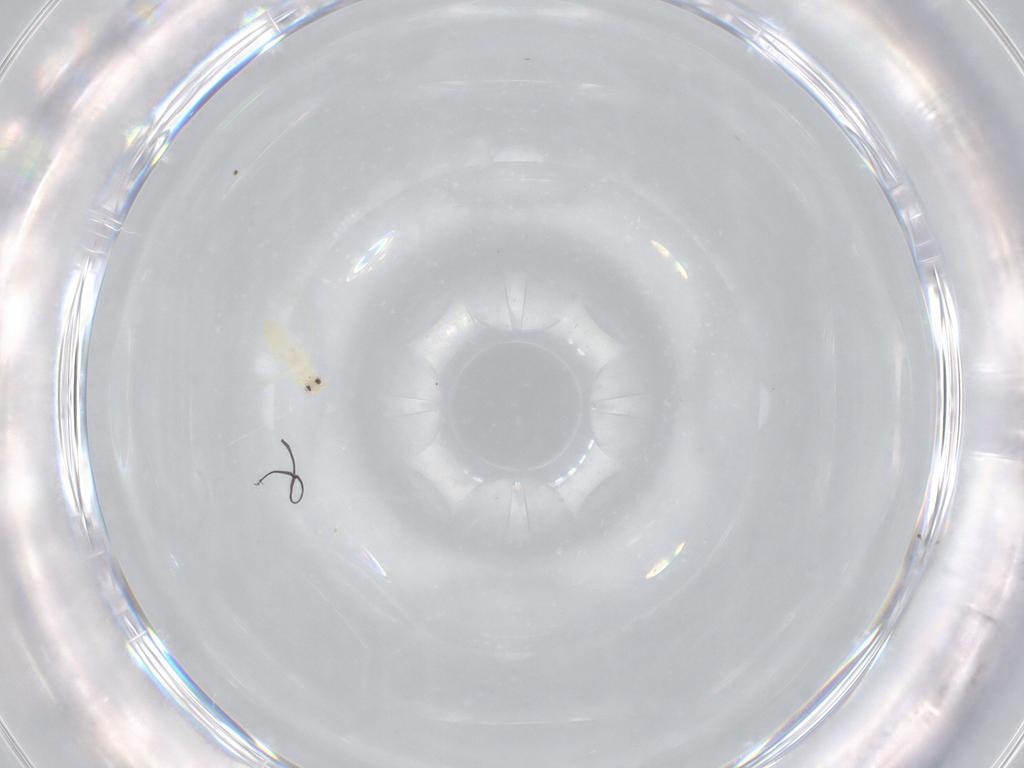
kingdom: Animalia
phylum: Arthropoda
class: Insecta
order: Hemiptera
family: Aleyrodidae
